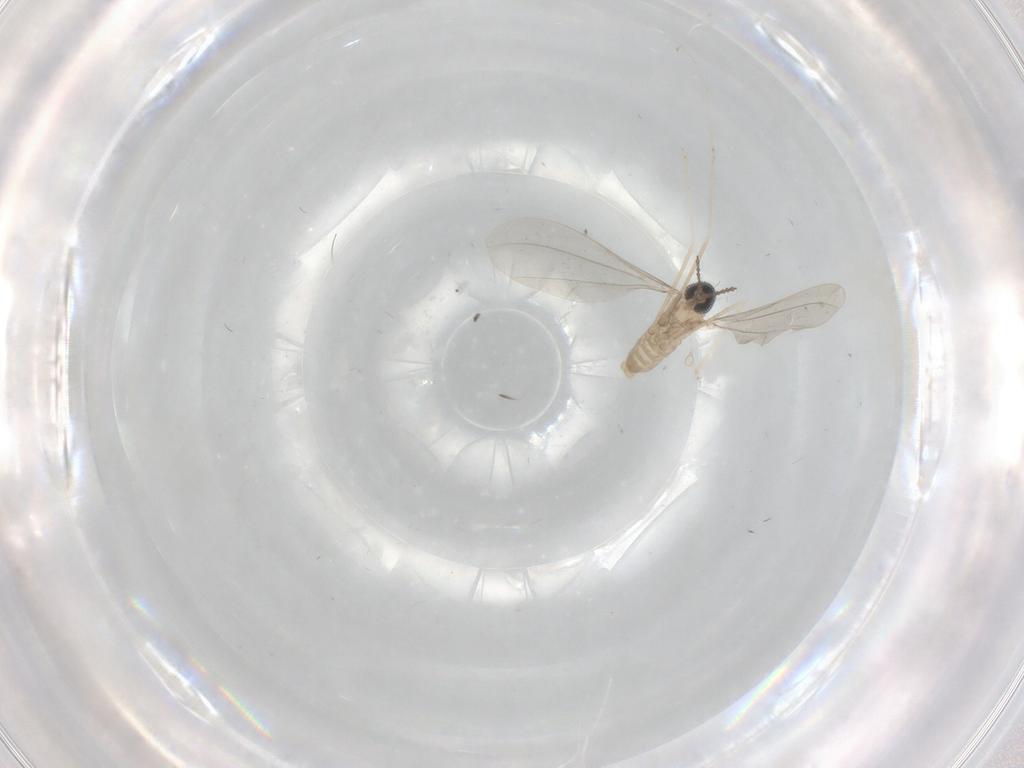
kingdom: Animalia
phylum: Arthropoda
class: Insecta
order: Diptera
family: Cecidomyiidae
